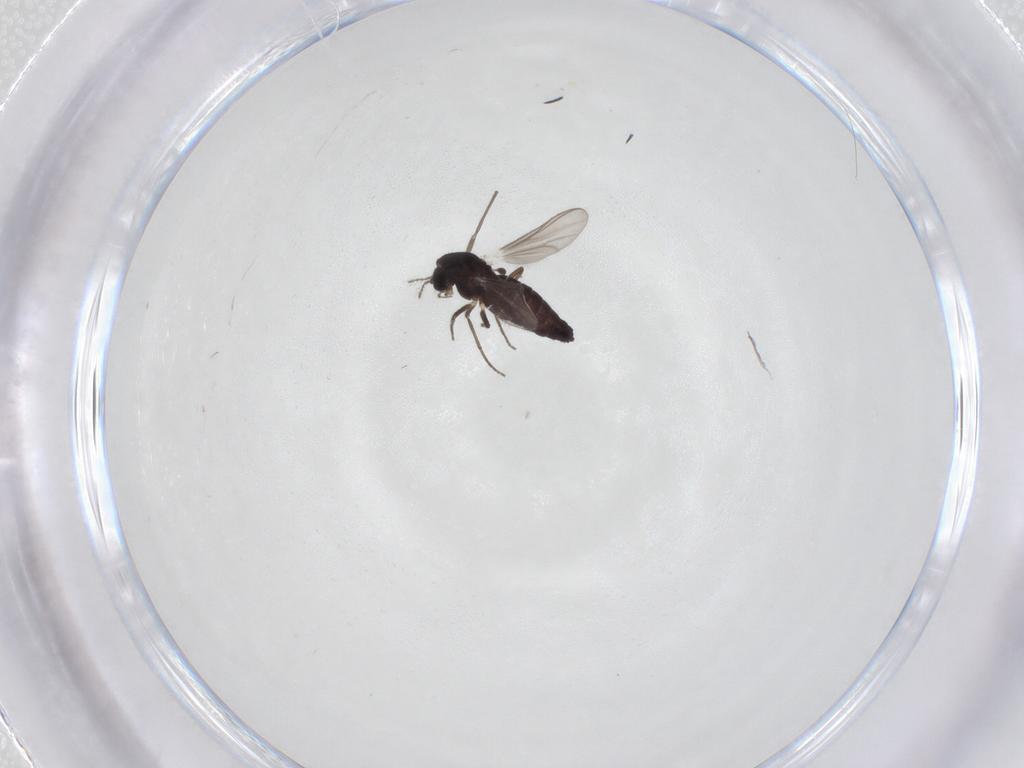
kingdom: Animalia
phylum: Arthropoda
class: Insecta
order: Diptera
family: Chironomidae
